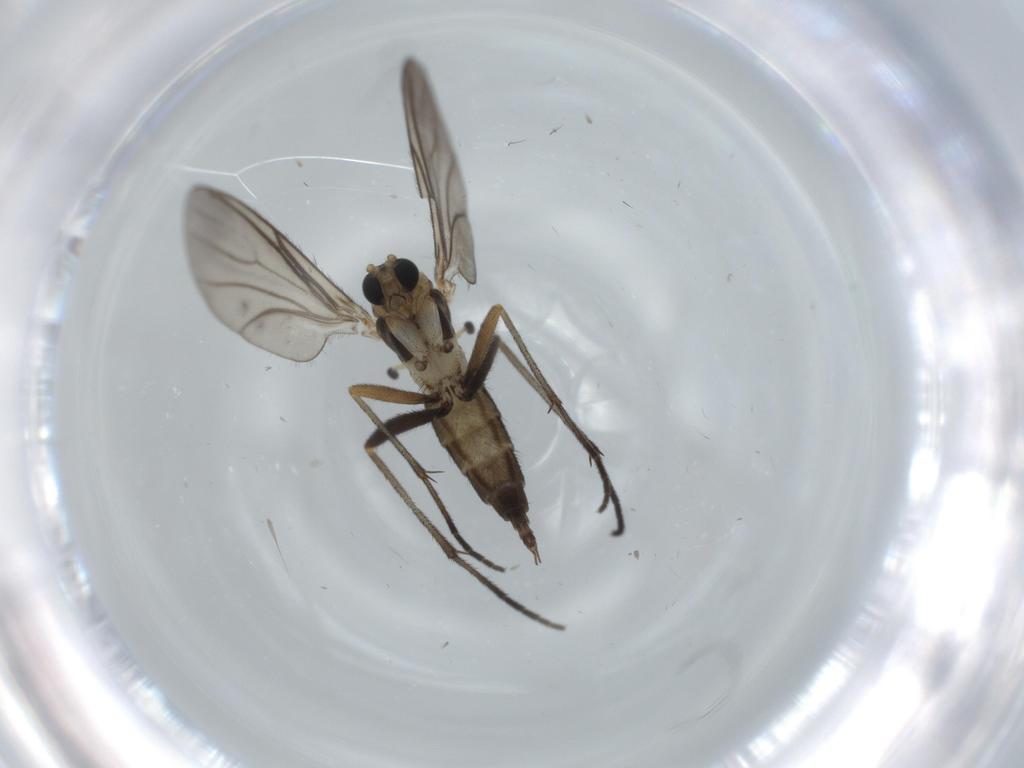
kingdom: Animalia
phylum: Arthropoda
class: Insecta
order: Diptera
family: Sciaridae
